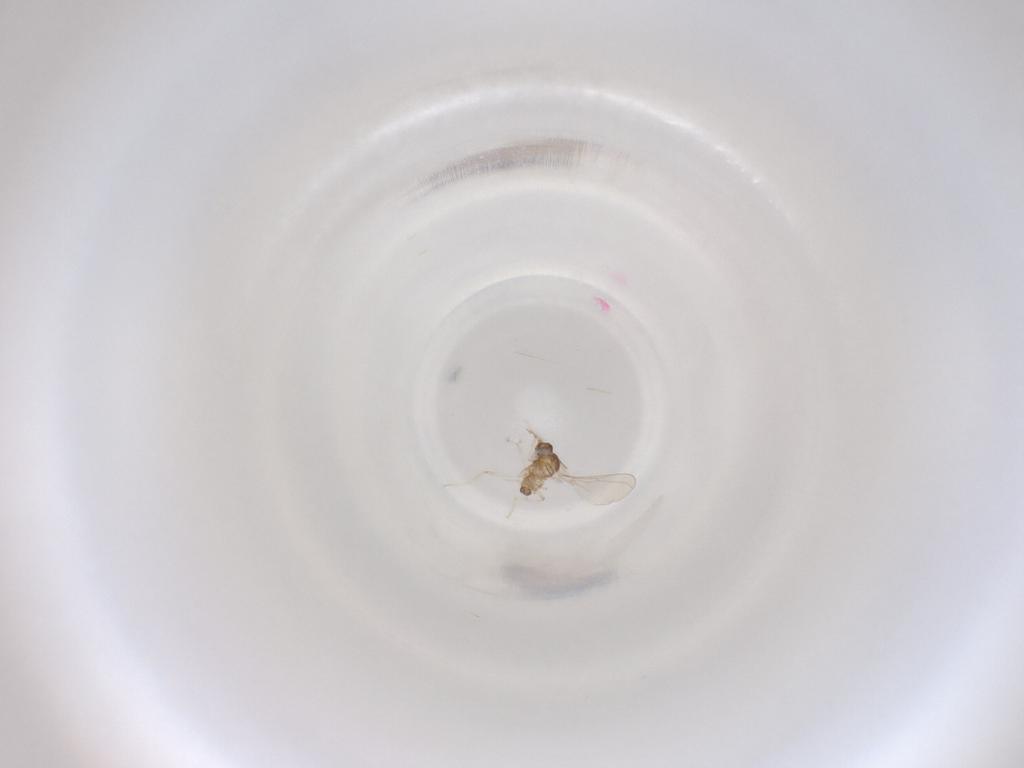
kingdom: Animalia
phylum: Arthropoda
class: Insecta
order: Diptera
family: Cecidomyiidae
